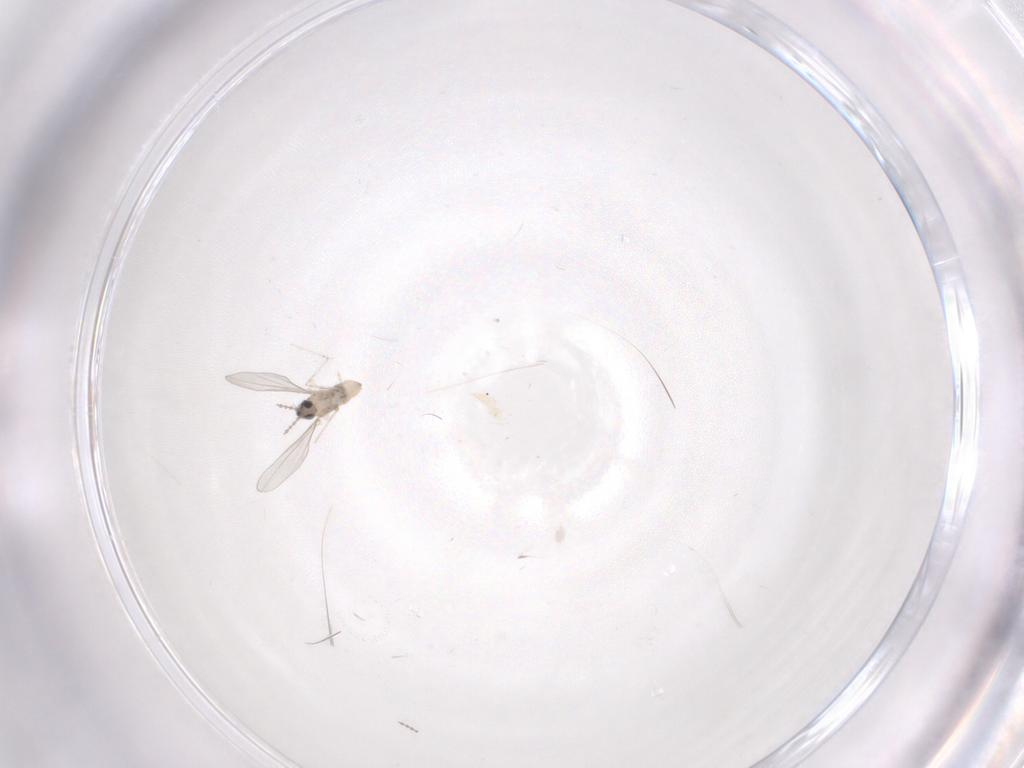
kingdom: Animalia
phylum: Arthropoda
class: Insecta
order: Diptera
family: Cecidomyiidae
